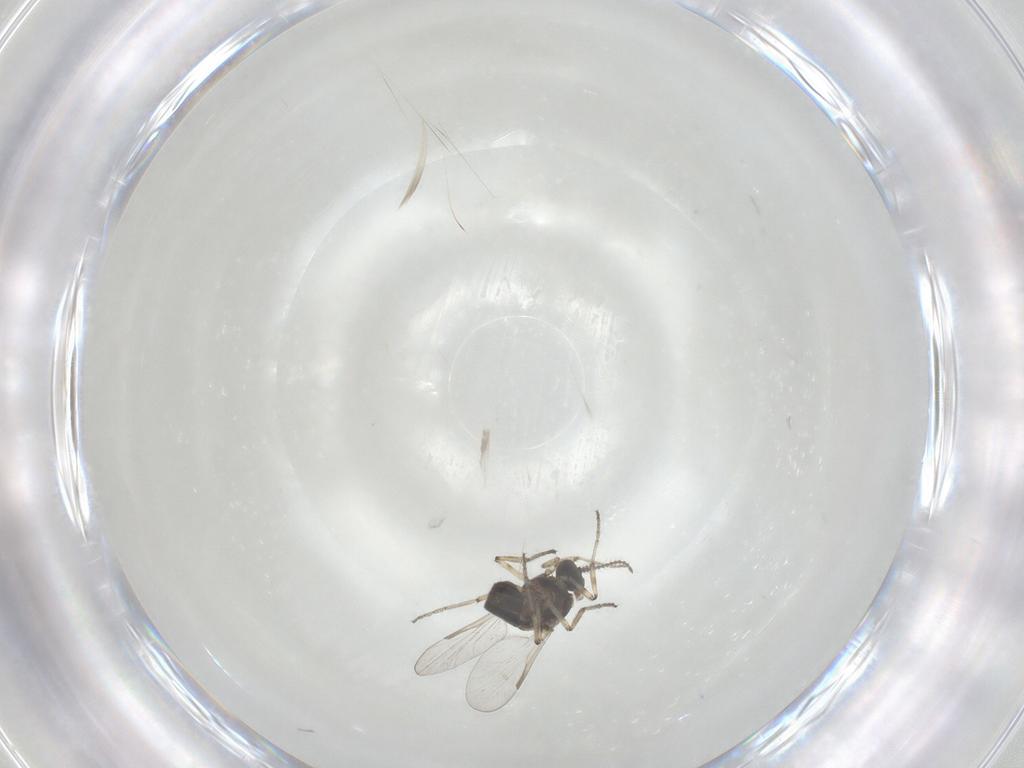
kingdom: Animalia
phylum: Arthropoda
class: Insecta
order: Diptera
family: Ceratopogonidae
